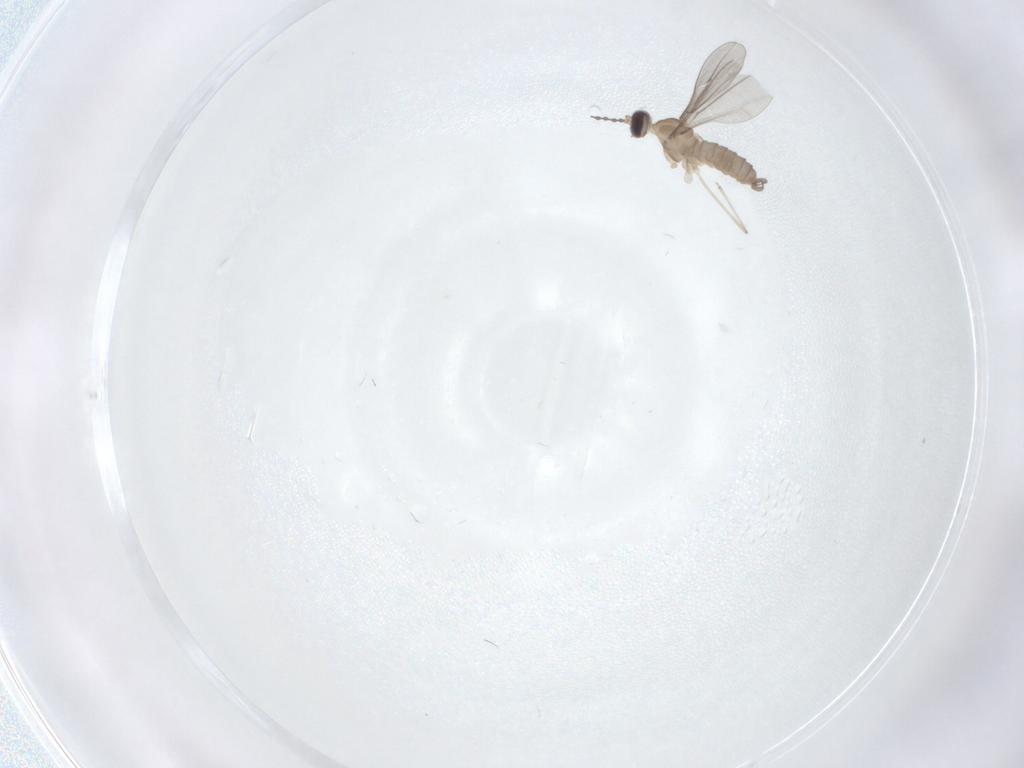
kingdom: Animalia
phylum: Arthropoda
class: Insecta
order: Diptera
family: Cecidomyiidae
